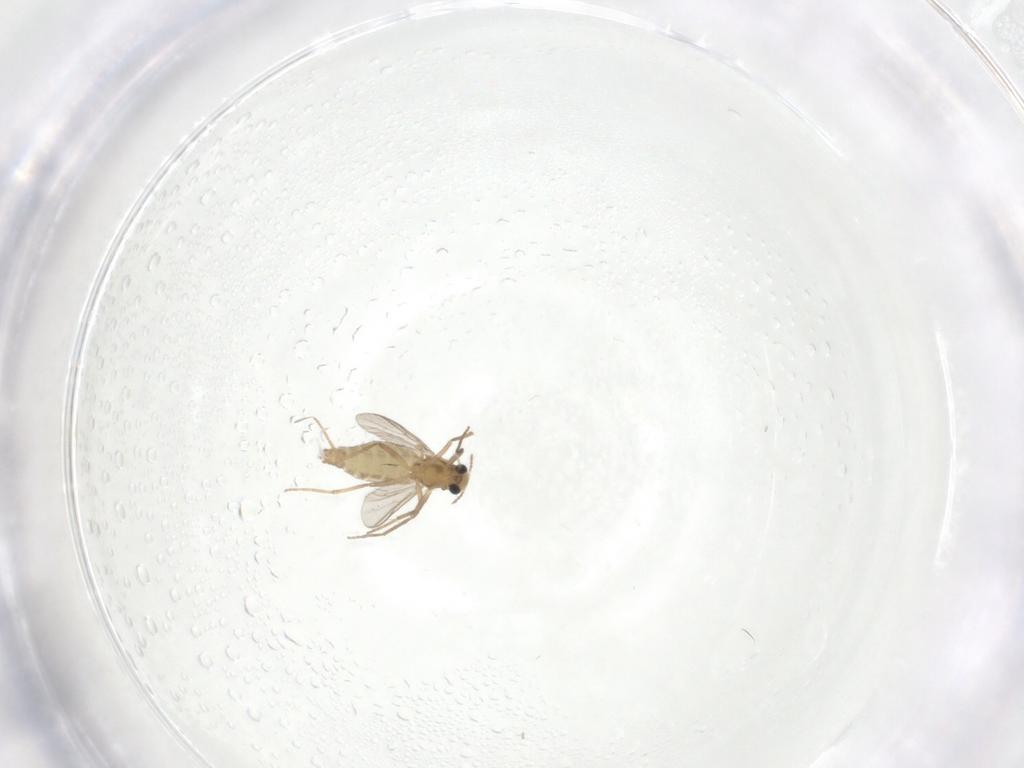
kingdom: Animalia
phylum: Arthropoda
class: Insecta
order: Diptera
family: Chironomidae
